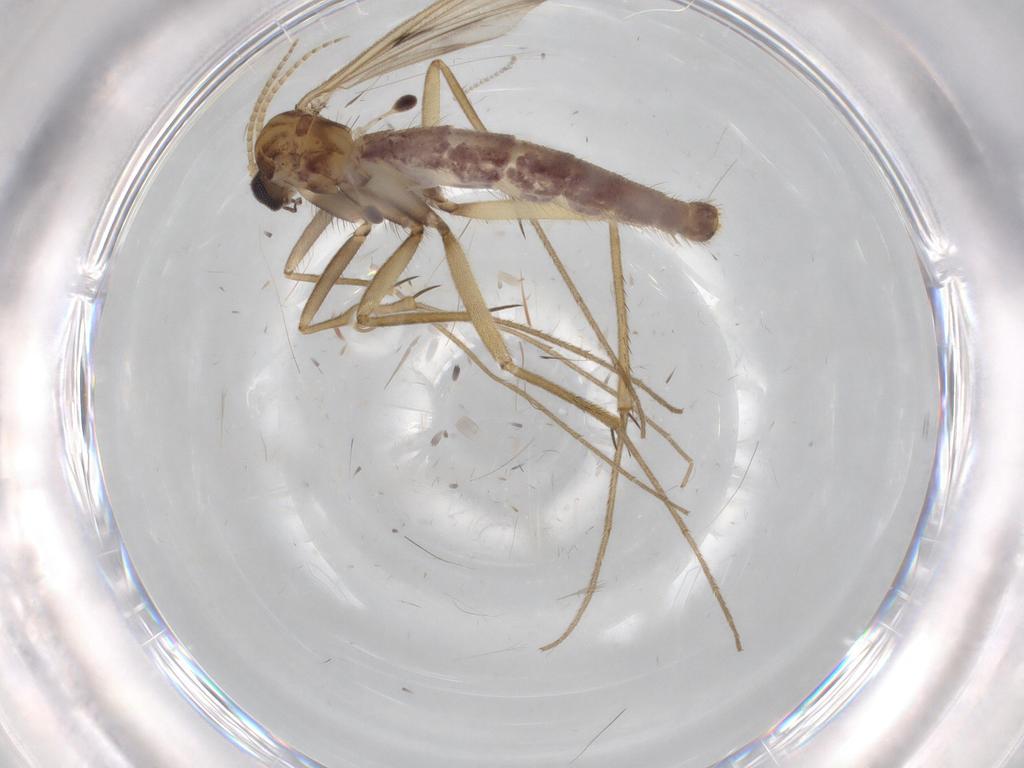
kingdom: Animalia
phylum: Arthropoda
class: Insecta
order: Diptera
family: Phoridae
